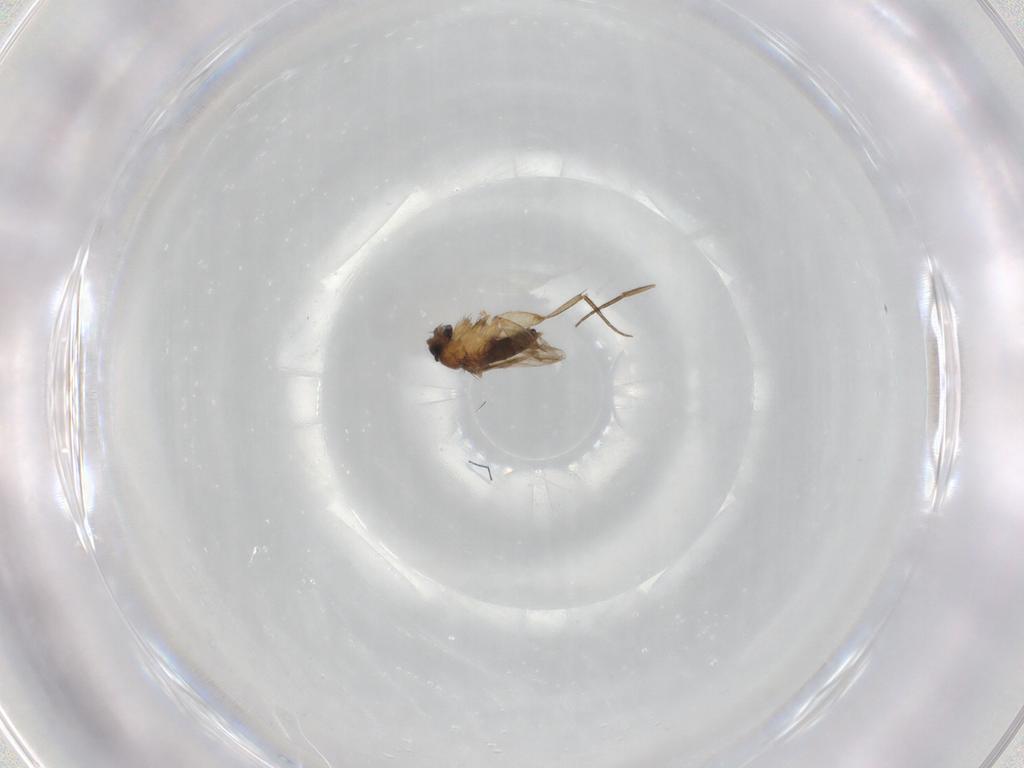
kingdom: Animalia
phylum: Arthropoda
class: Insecta
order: Diptera
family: Phoridae
